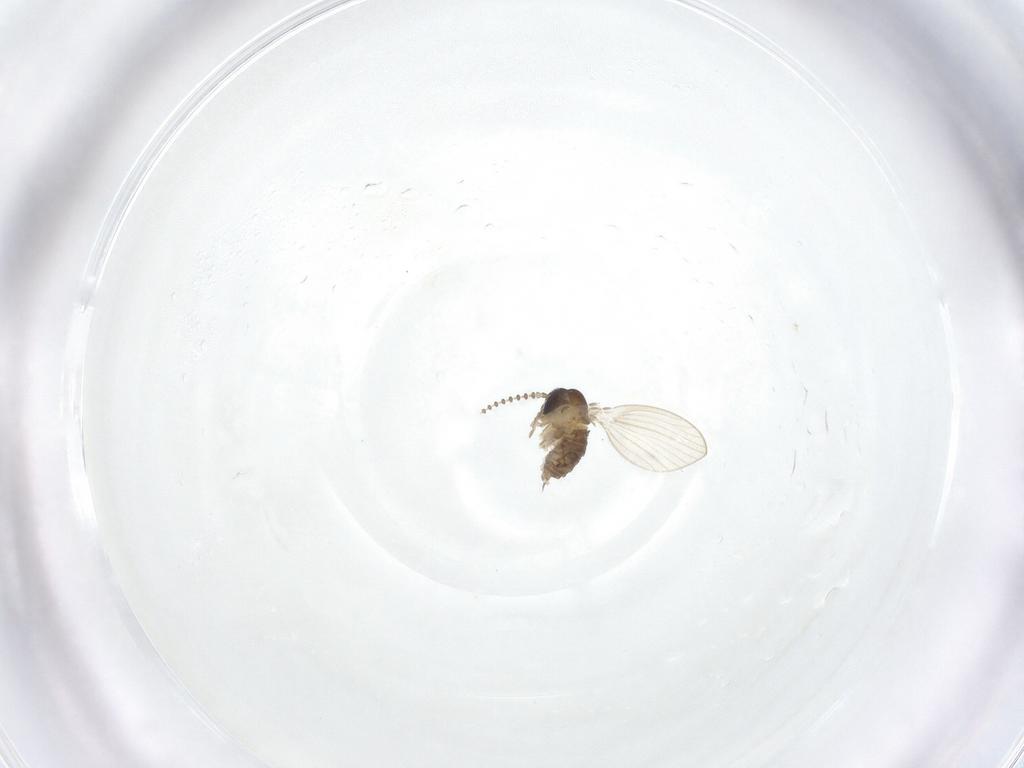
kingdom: Animalia
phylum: Arthropoda
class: Insecta
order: Diptera
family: Psychodidae
